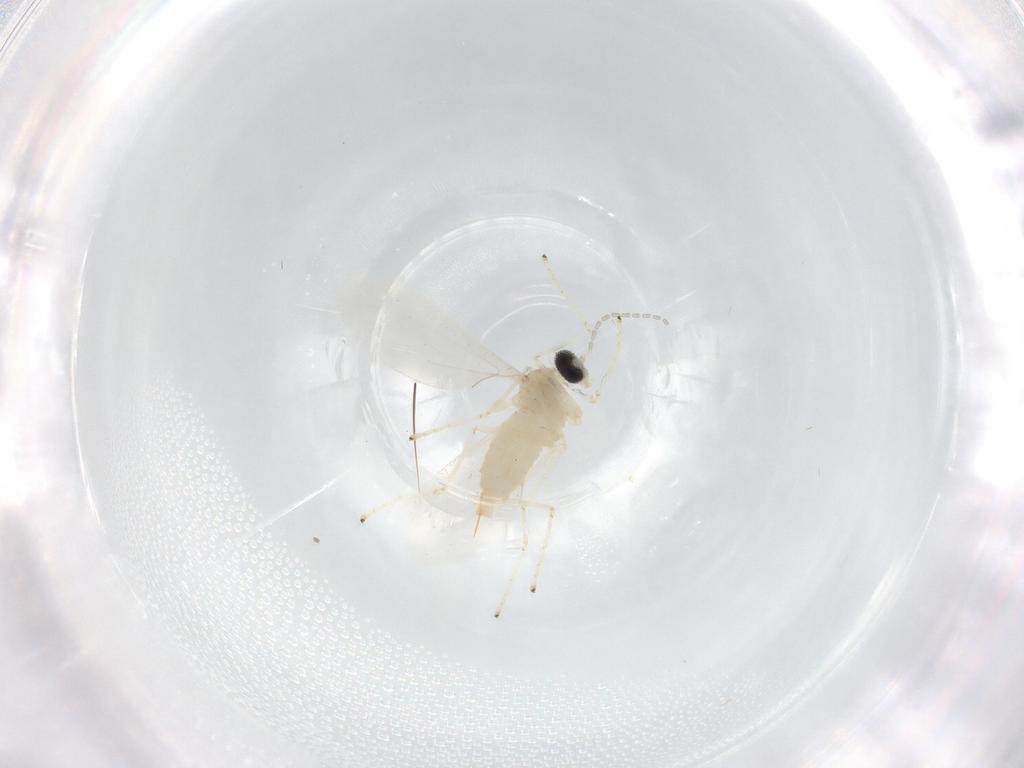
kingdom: Animalia
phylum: Arthropoda
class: Insecta
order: Diptera
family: Cecidomyiidae
